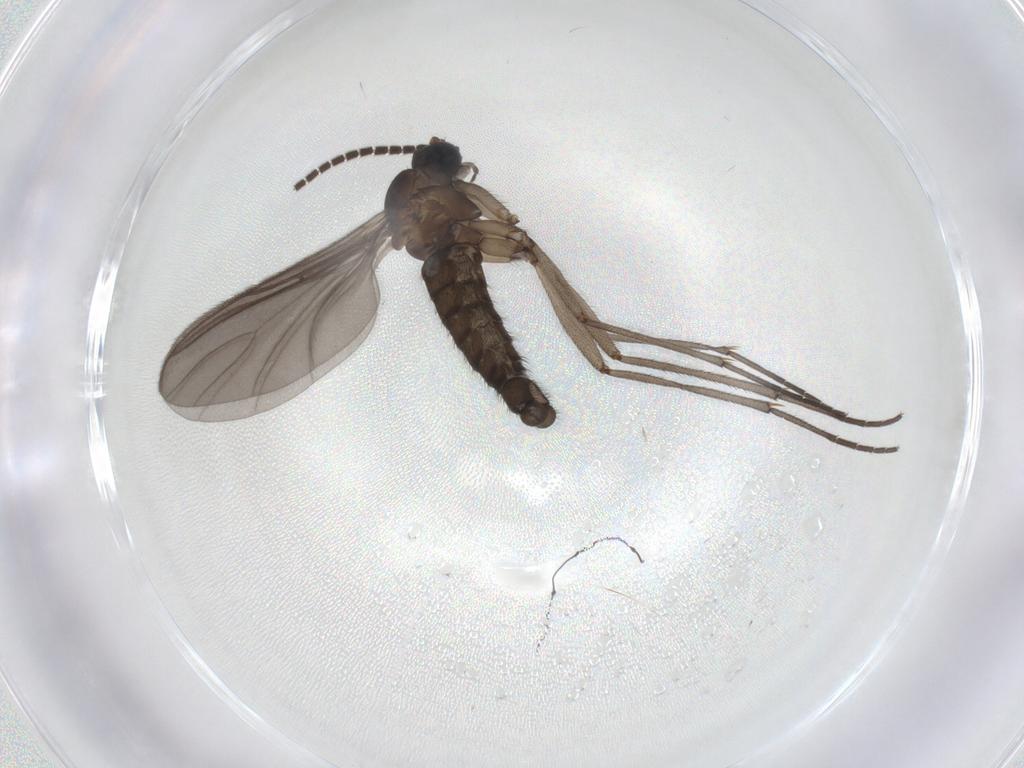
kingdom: Animalia
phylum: Arthropoda
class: Insecta
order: Diptera
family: Sciaridae
